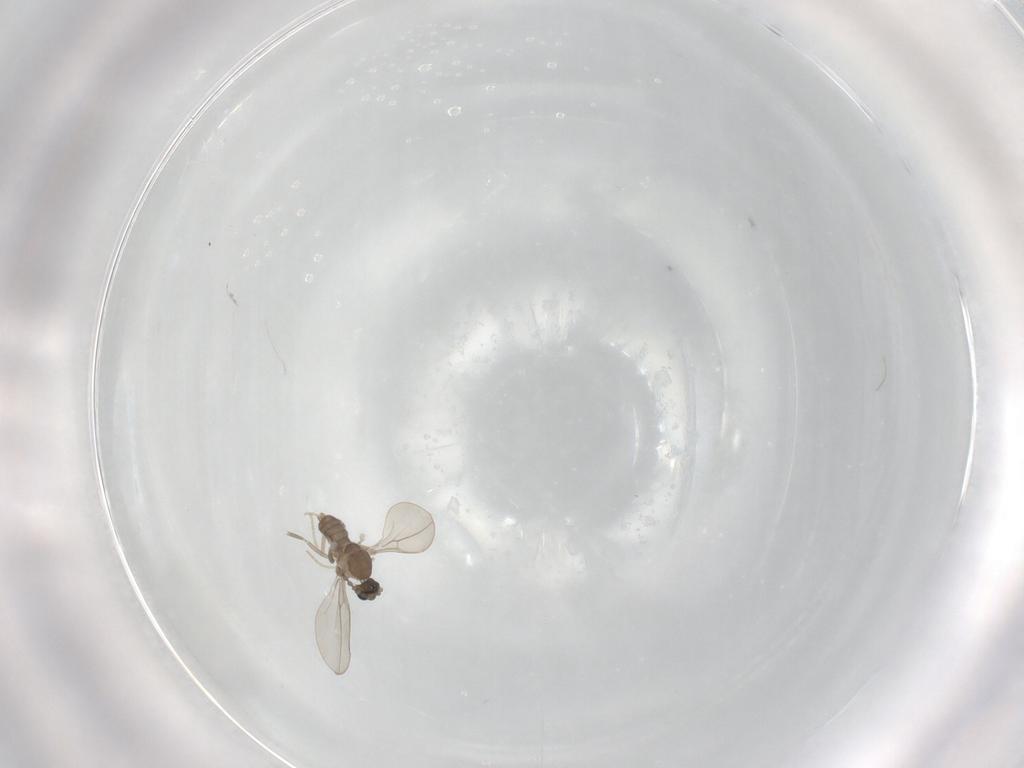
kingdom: Animalia
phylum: Arthropoda
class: Insecta
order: Diptera
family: Cecidomyiidae
